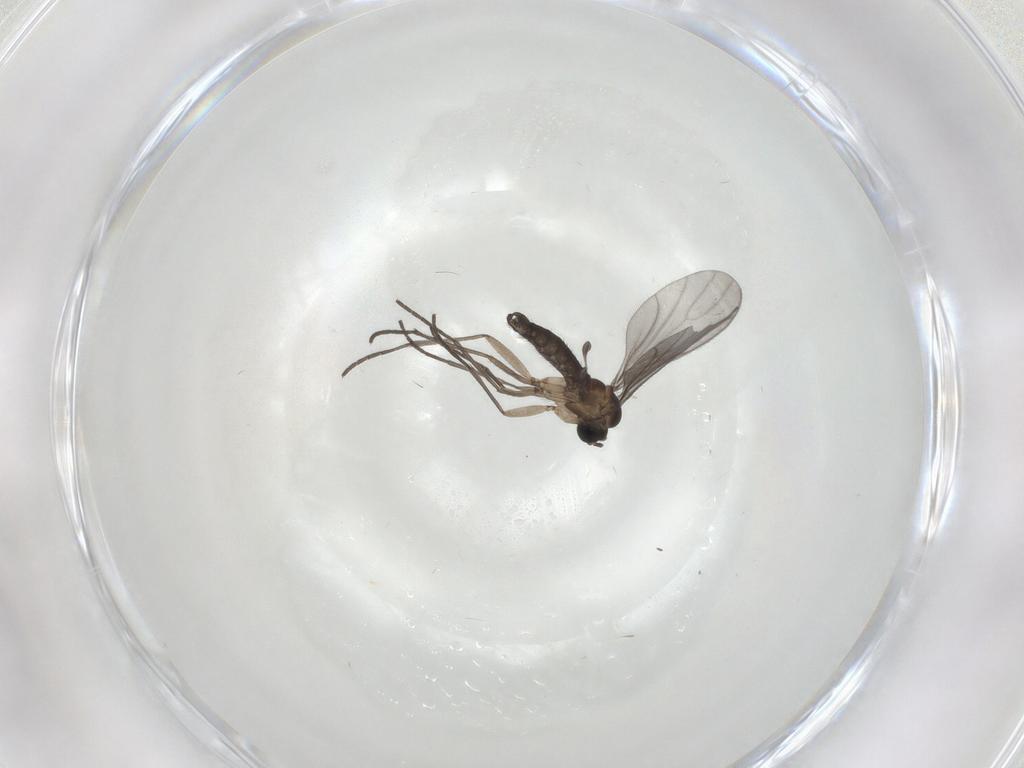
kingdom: Animalia
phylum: Arthropoda
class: Insecta
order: Diptera
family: Sciaridae
